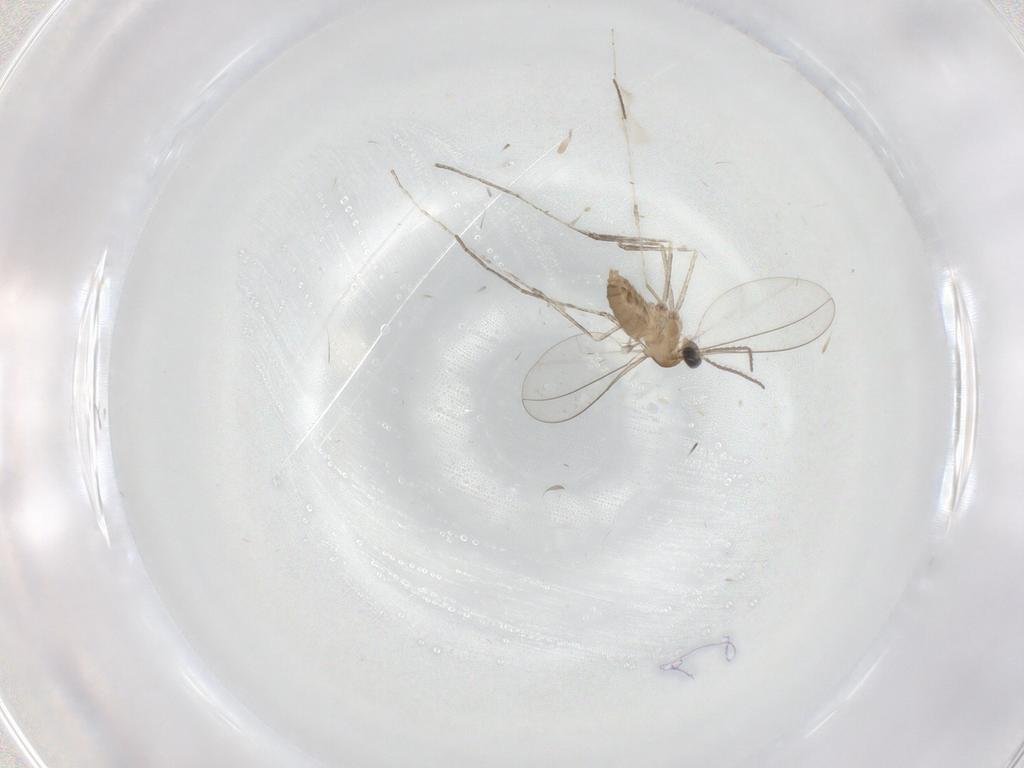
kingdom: Animalia
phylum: Arthropoda
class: Insecta
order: Diptera
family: Cecidomyiidae
